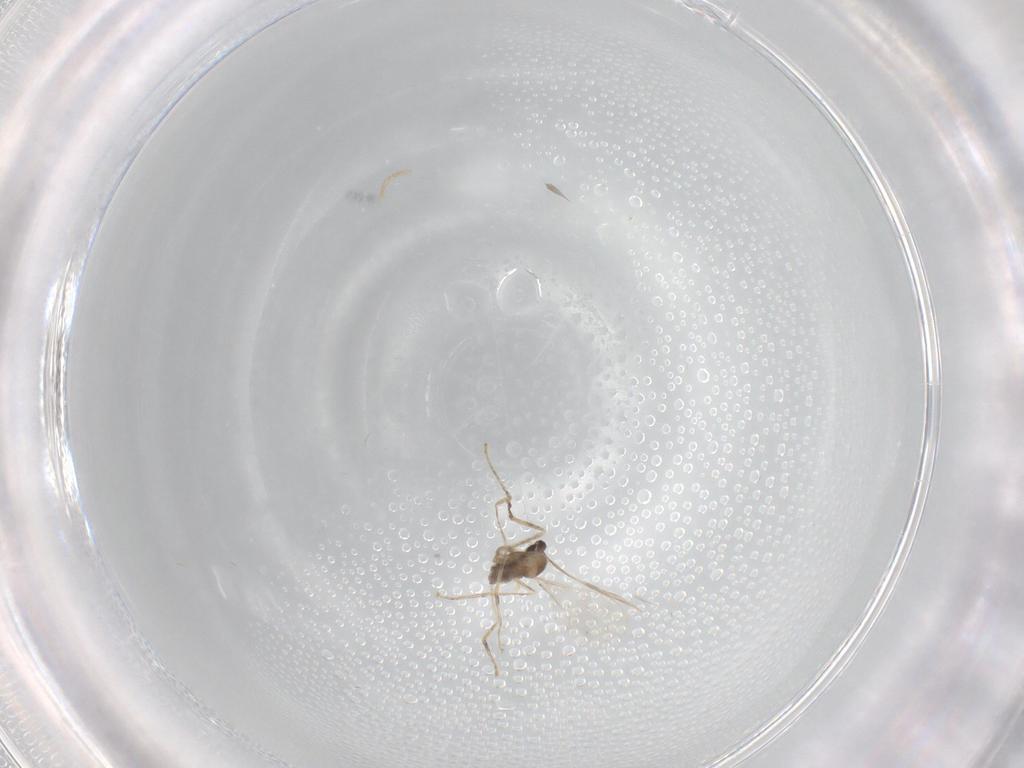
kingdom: Animalia
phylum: Arthropoda
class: Insecta
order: Diptera
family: Cecidomyiidae
